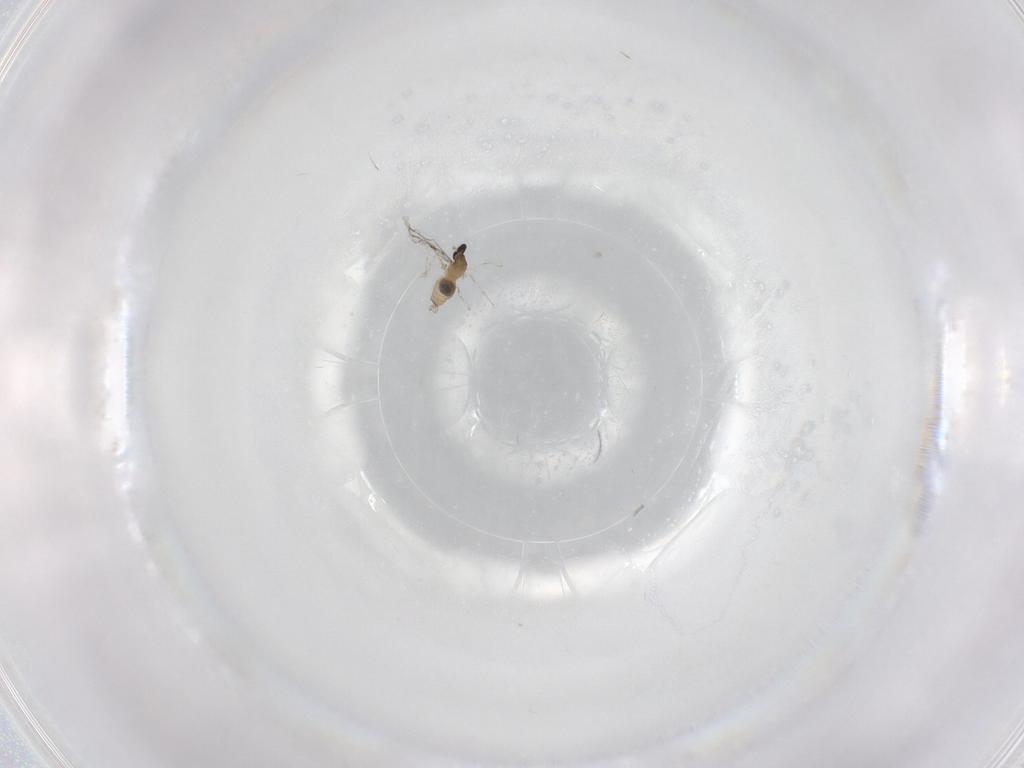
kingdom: Animalia
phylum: Arthropoda
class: Insecta
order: Diptera
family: Cecidomyiidae
